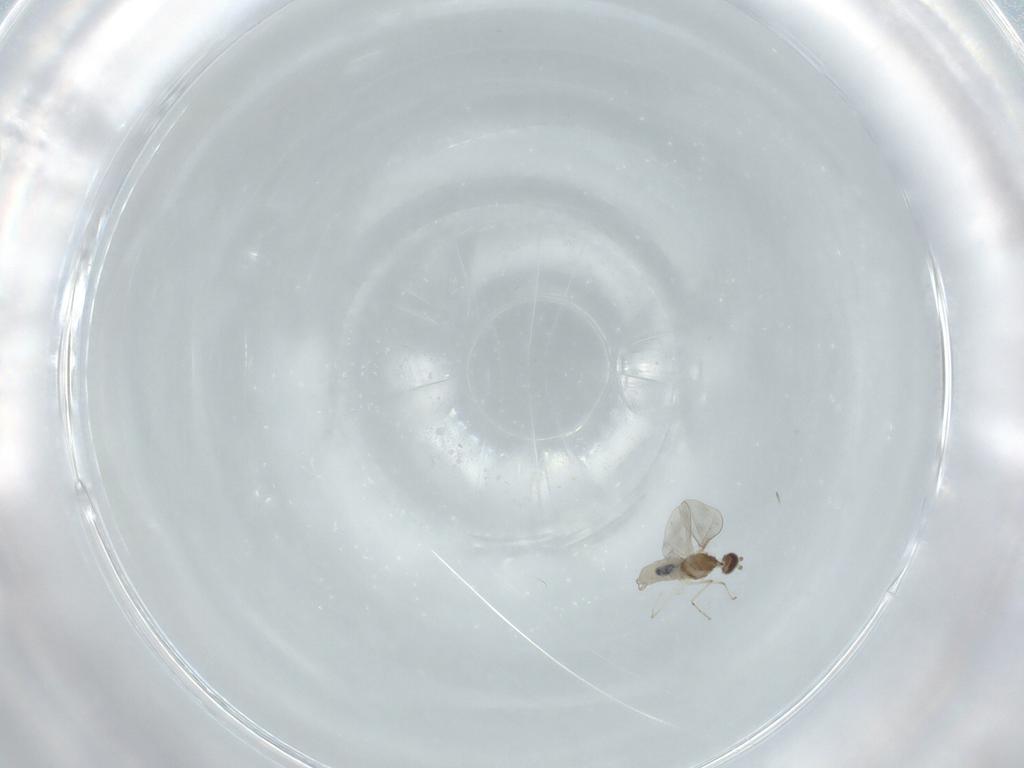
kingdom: Animalia
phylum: Arthropoda
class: Insecta
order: Diptera
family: Cecidomyiidae
